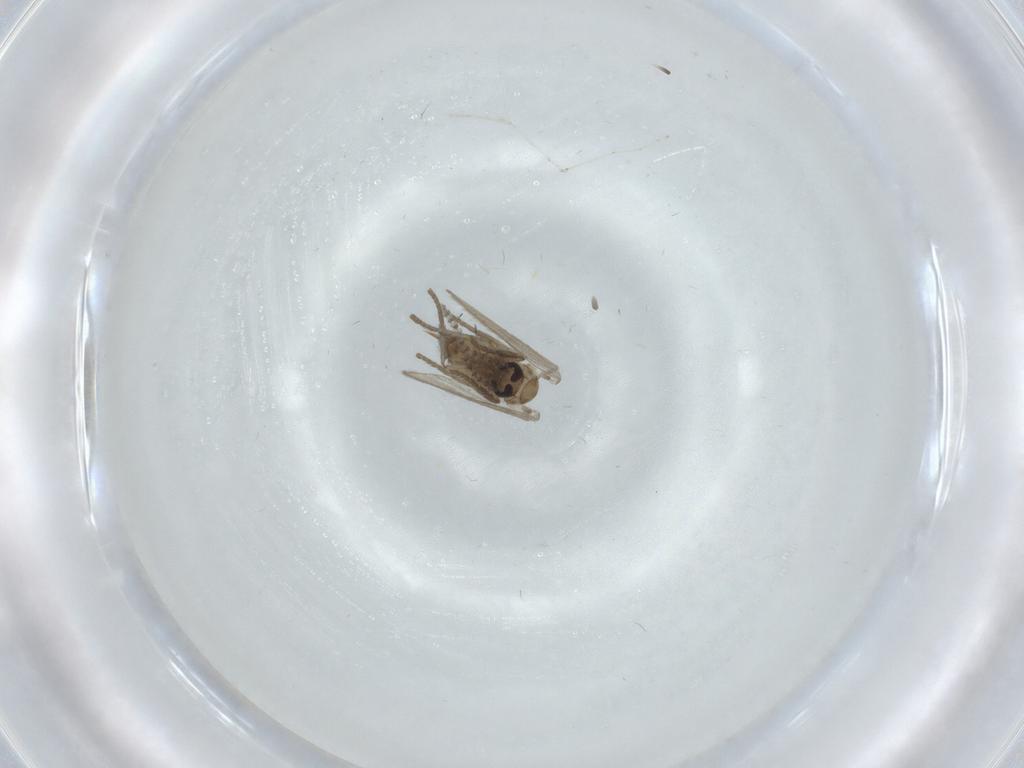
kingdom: Animalia
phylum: Arthropoda
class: Insecta
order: Diptera
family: Psychodidae
